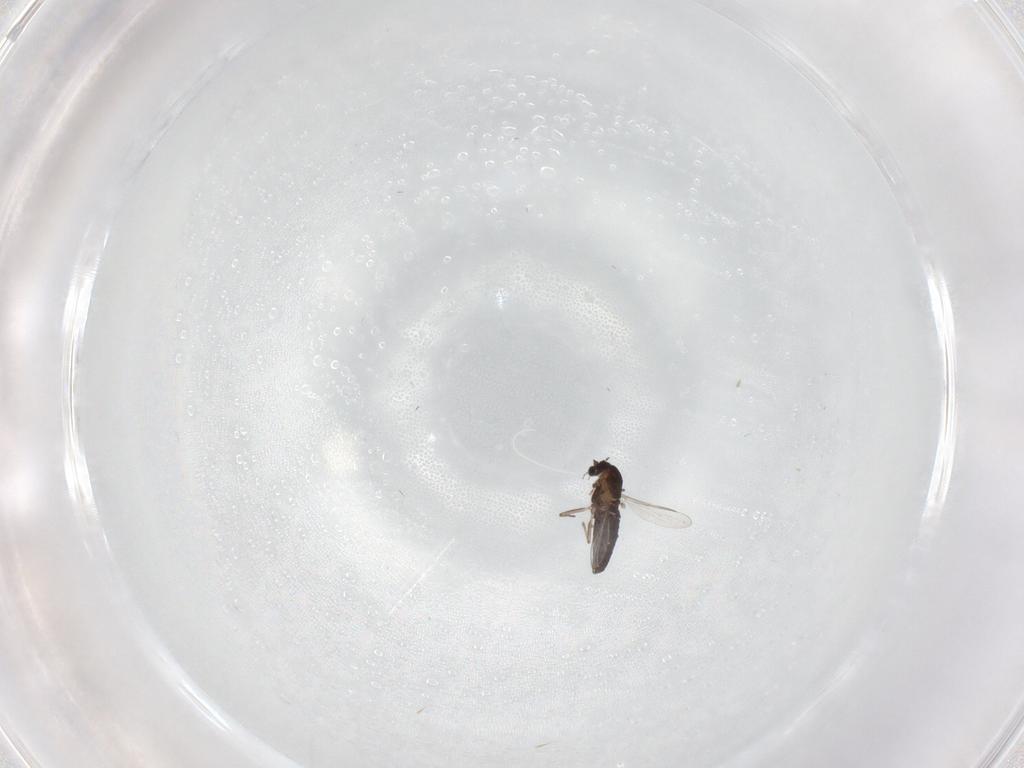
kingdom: Animalia
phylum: Arthropoda
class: Insecta
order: Diptera
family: Chironomidae
